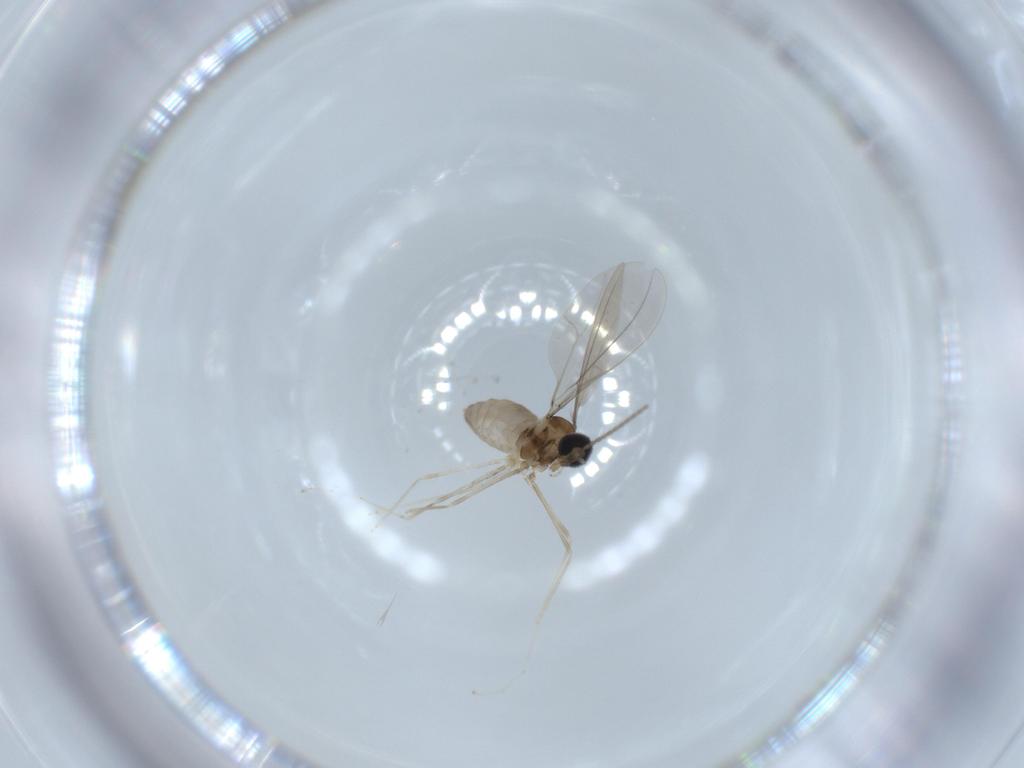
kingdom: Animalia
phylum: Arthropoda
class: Insecta
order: Diptera
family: Cecidomyiidae
